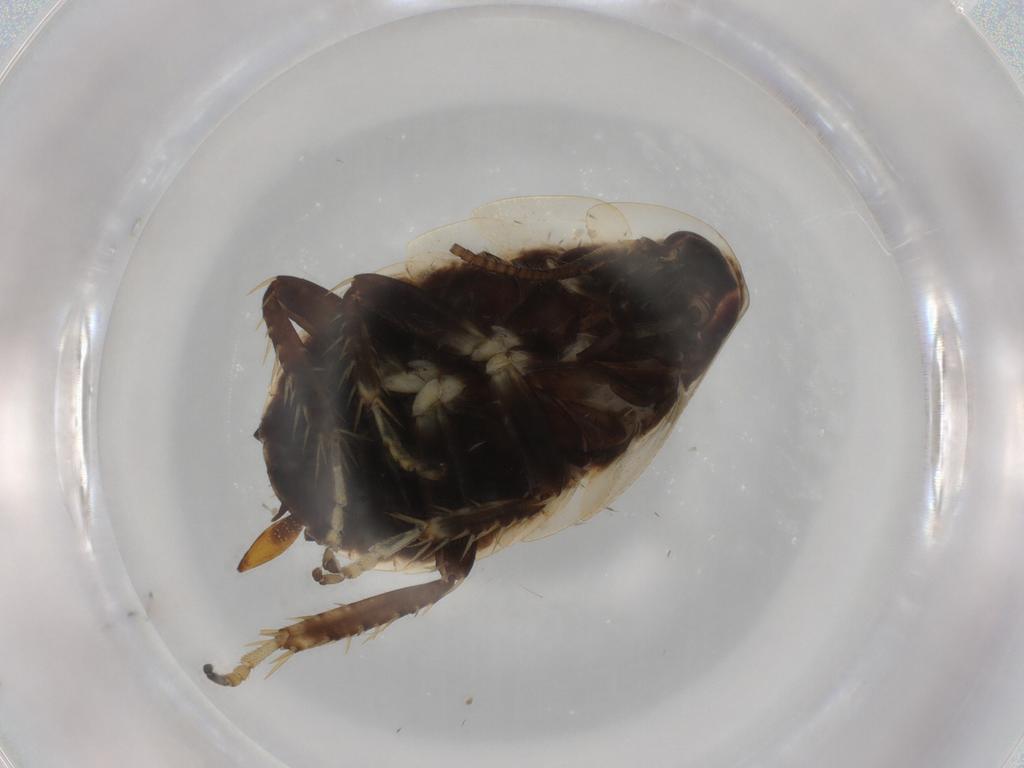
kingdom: Animalia
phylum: Arthropoda
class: Insecta
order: Blattodea
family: Ectobiidae
